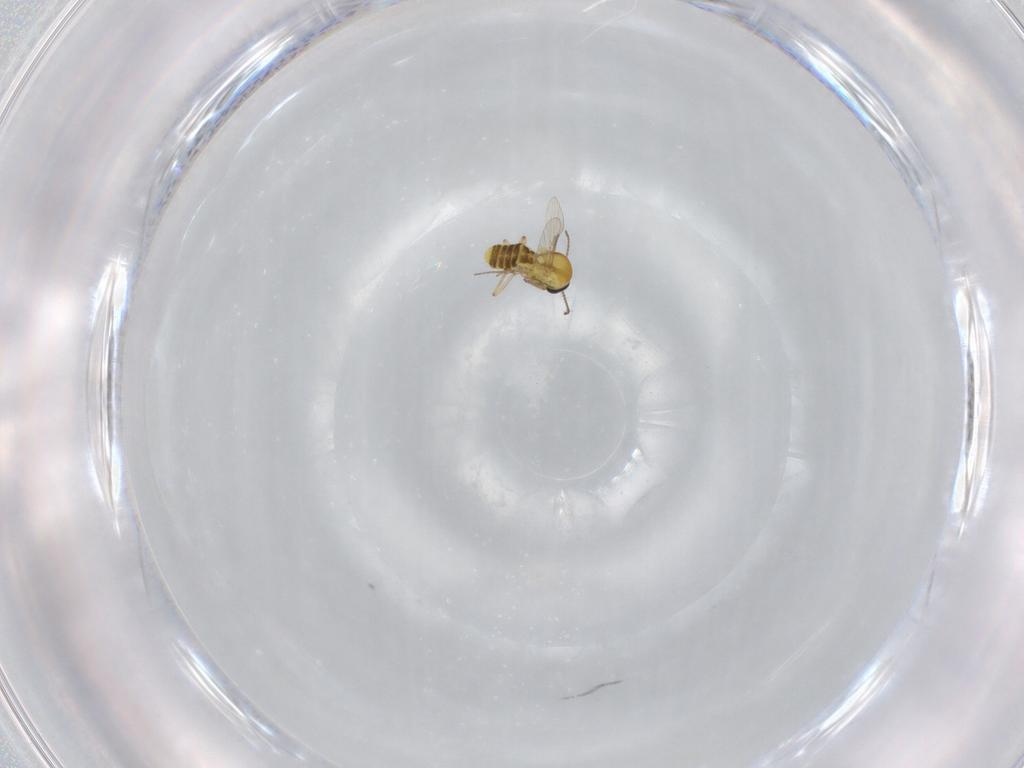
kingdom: Animalia
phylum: Arthropoda
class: Insecta
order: Diptera
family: Ceratopogonidae
